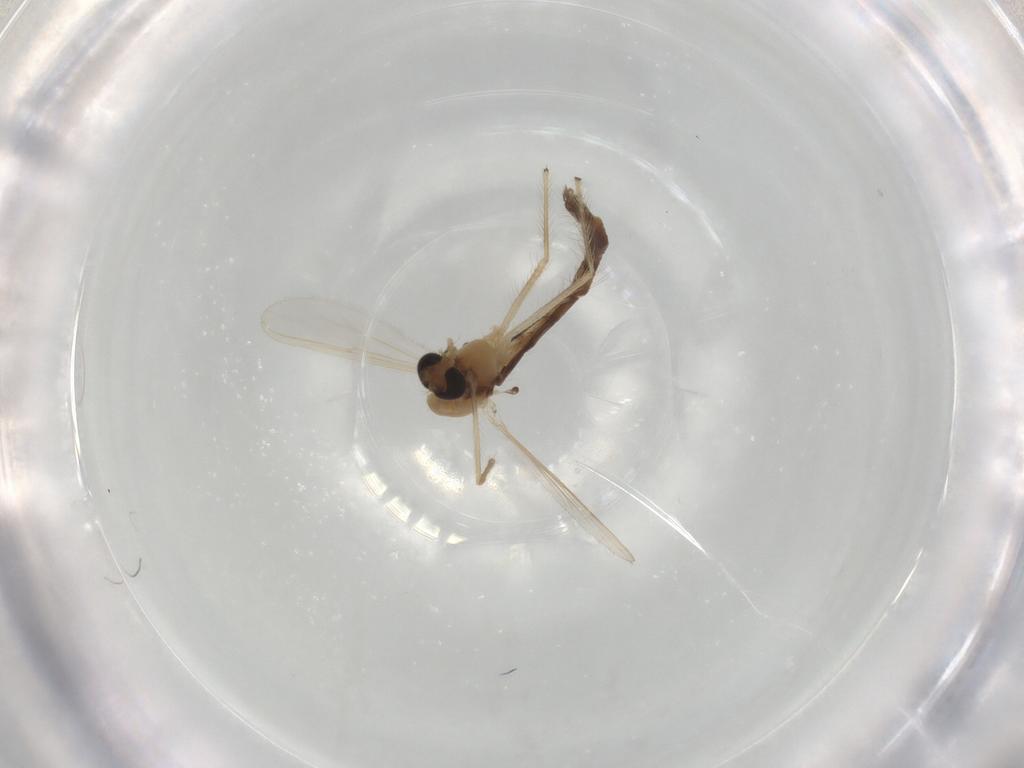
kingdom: Animalia
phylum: Arthropoda
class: Insecta
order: Diptera
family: Chironomidae
